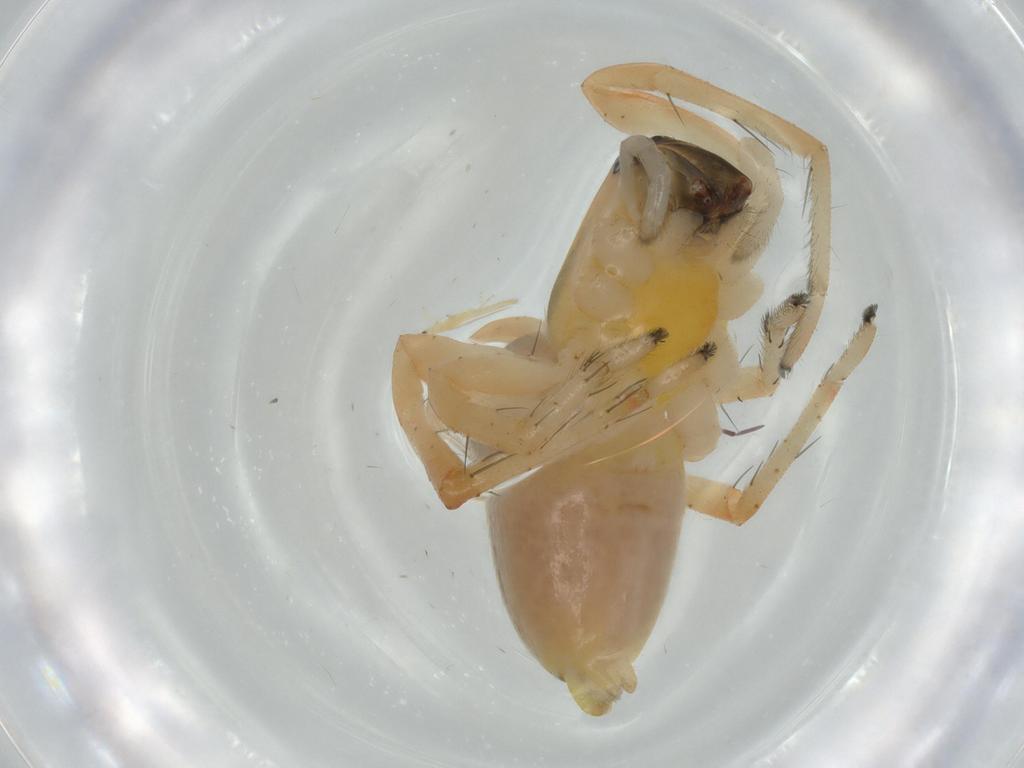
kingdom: Animalia
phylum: Arthropoda
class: Arachnida
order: Araneae
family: Anyphaenidae
